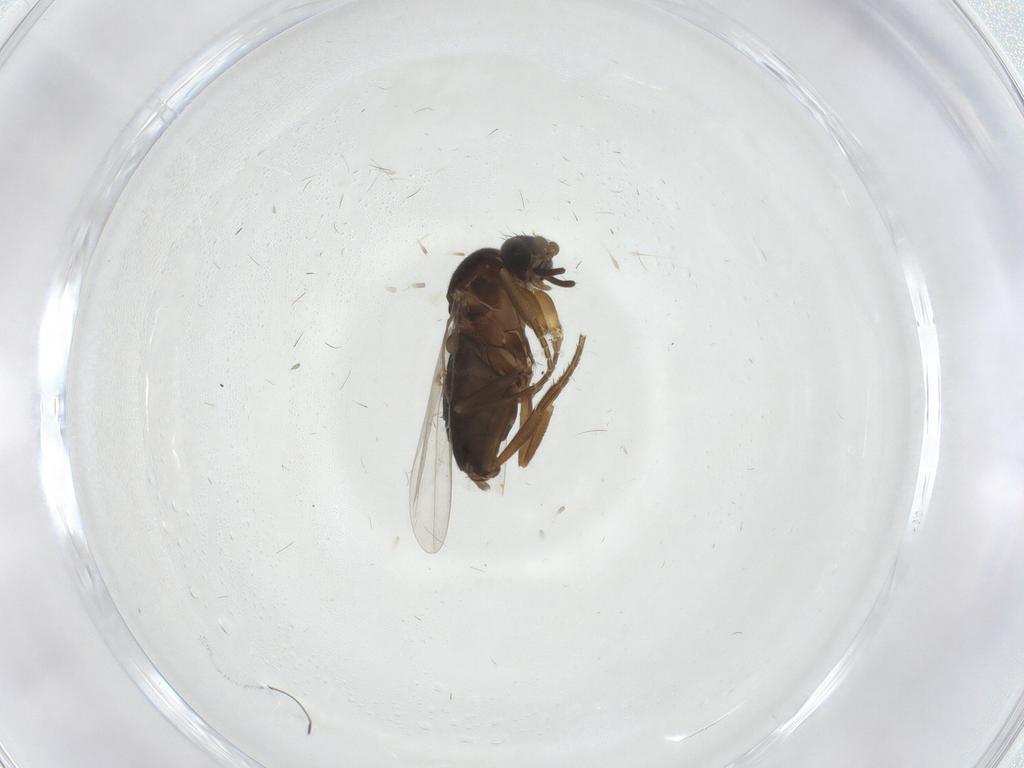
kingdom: Animalia
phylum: Arthropoda
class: Insecta
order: Diptera
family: Phoridae
